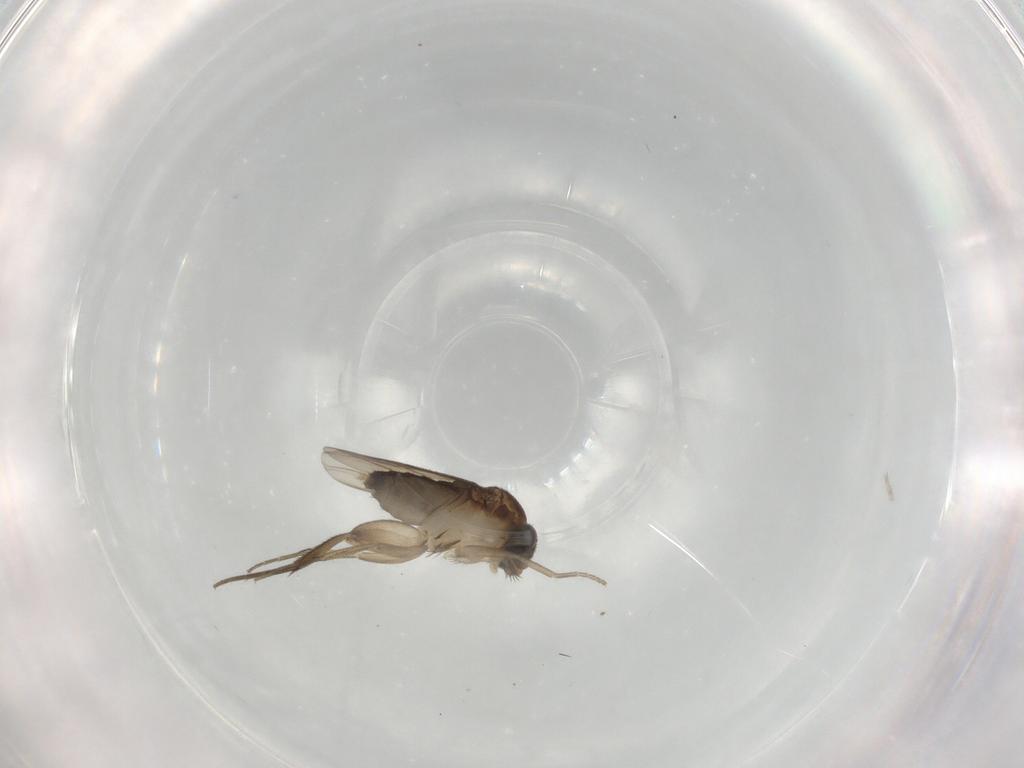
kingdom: Animalia
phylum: Arthropoda
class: Insecta
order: Diptera
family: Phoridae
